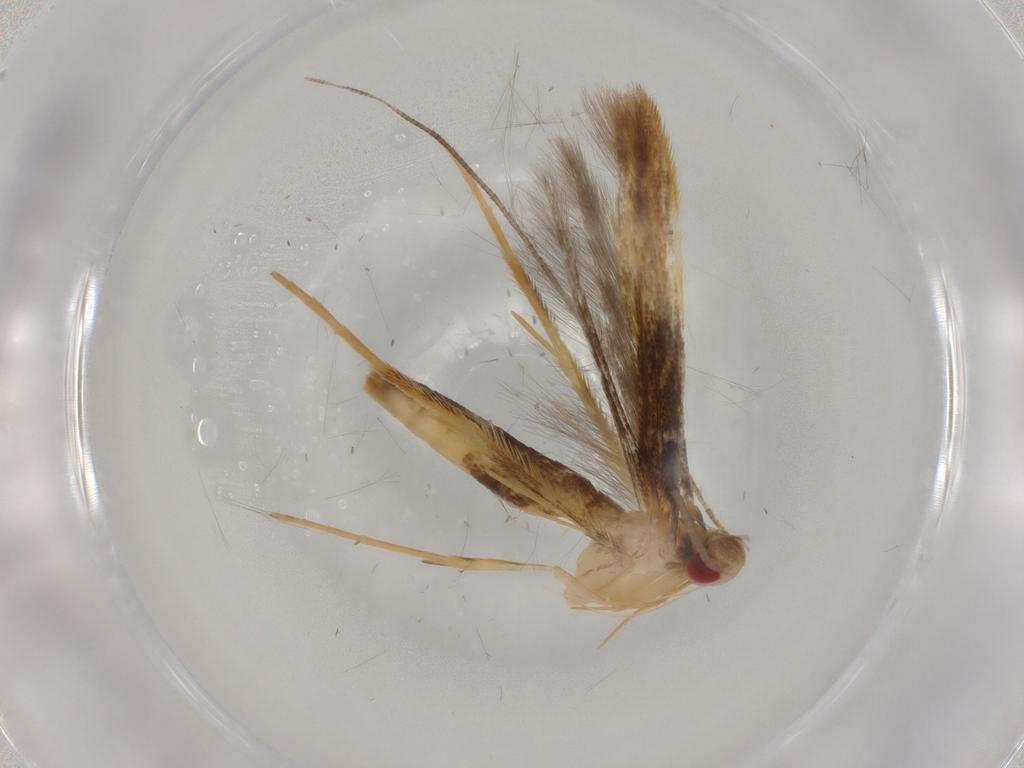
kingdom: Animalia
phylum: Arthropoda
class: Insecta
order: Lepidoptera
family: Gracillariidae
